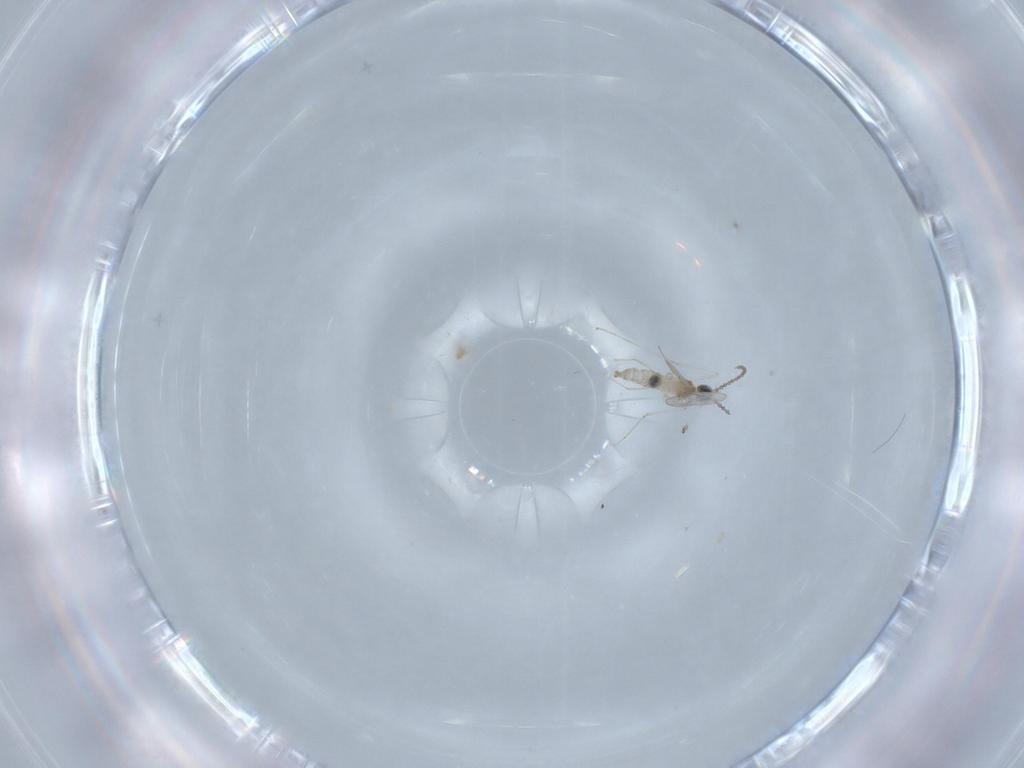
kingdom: Animalia
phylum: Arthropoda
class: Insecta
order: Diptera
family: Cecidomyiidae
